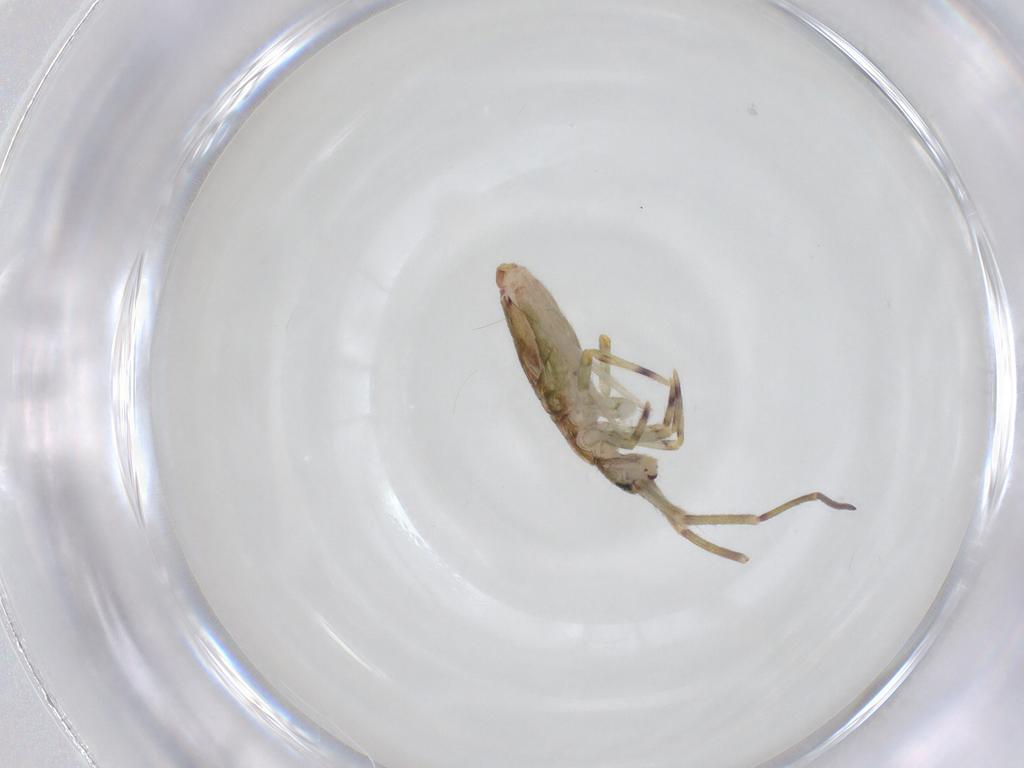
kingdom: Animalia
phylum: Arthropoda
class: Collembola
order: Entomobryomorpha
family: Entomobryidae
